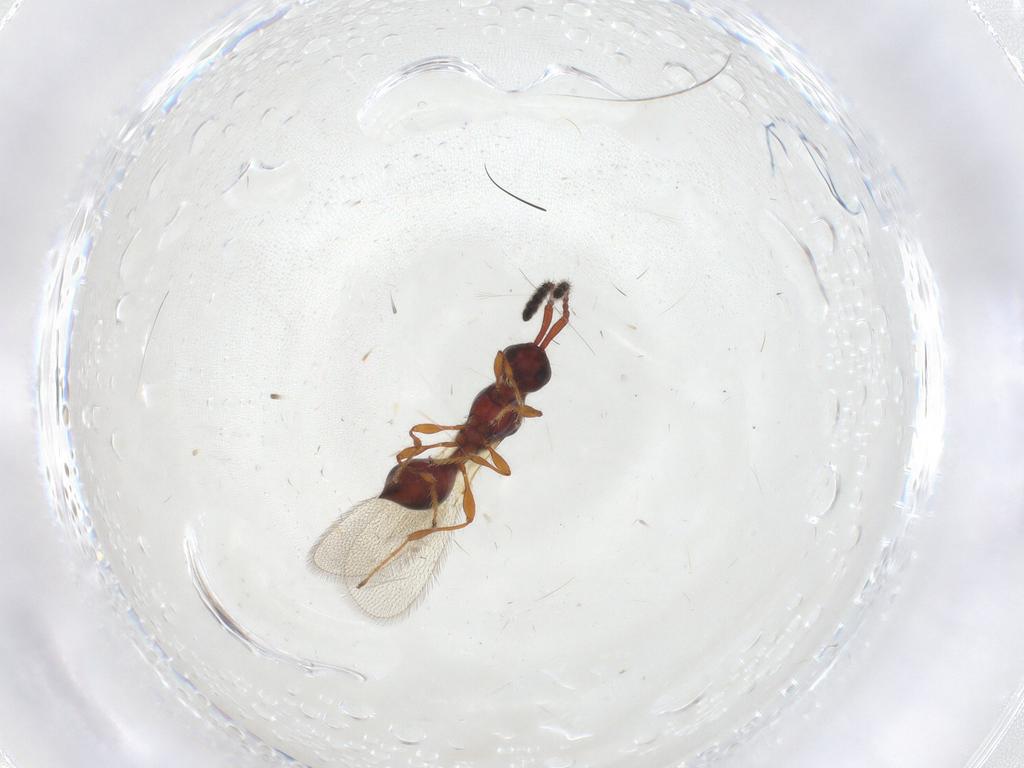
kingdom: Animalia
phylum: Arthropoda
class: Insecta
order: Hymenoptera
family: Diapriidae
